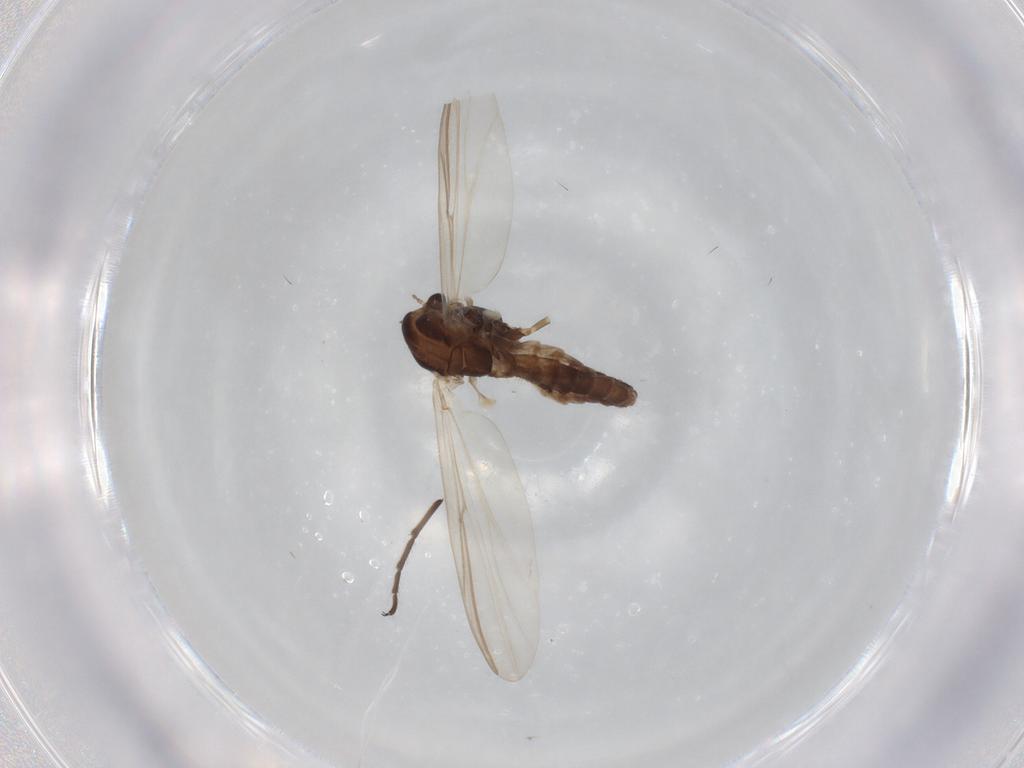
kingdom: Animalia
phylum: Arthropoda
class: Insecta
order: Diptera
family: Chironomidae
